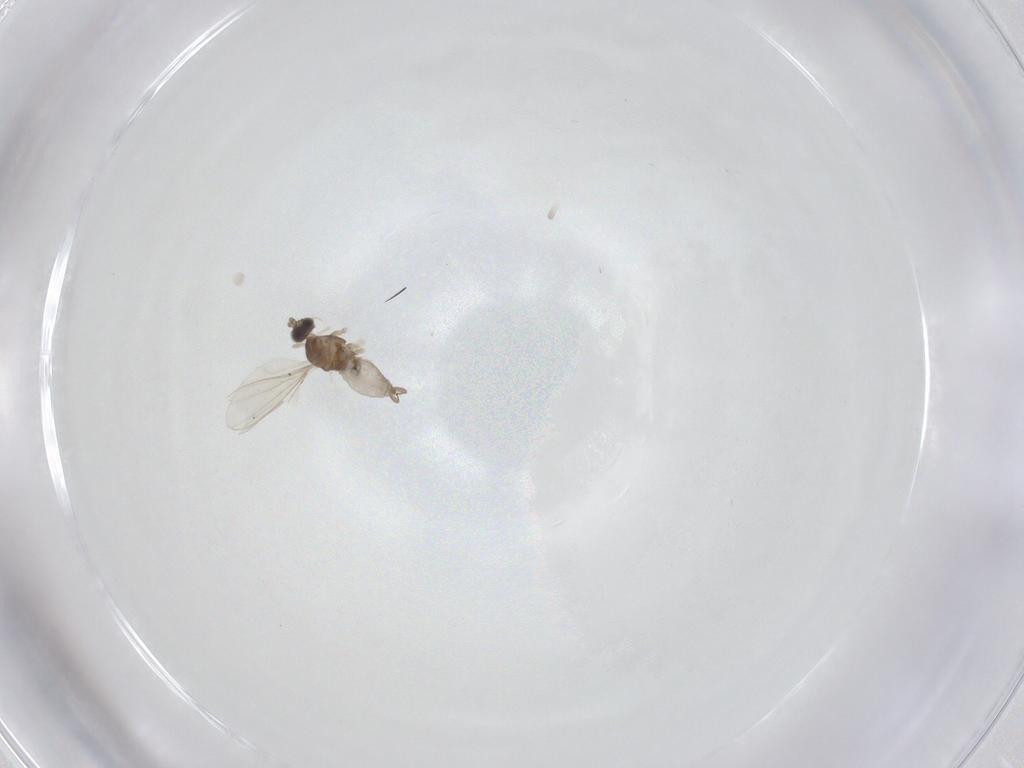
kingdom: Animalia
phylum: Arthropoda
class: Insecta
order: Diptera
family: Cecidomyiidae
